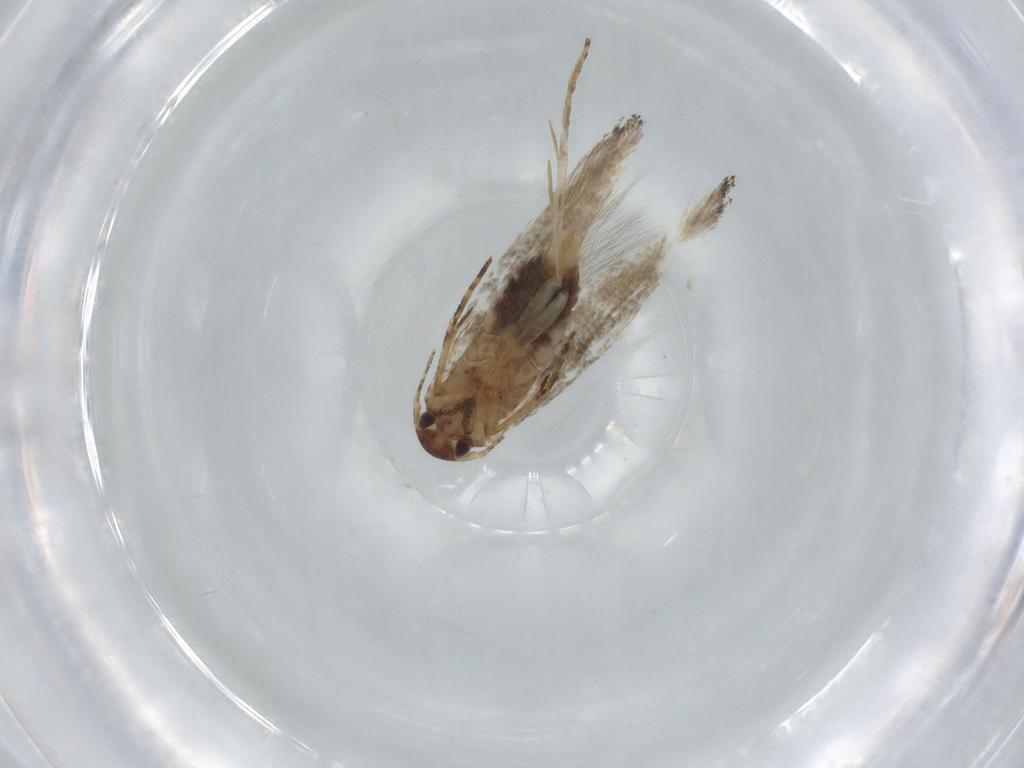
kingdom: Animalia
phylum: Arthropoda
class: Insecta
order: Lepidoptera
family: Momphidae
